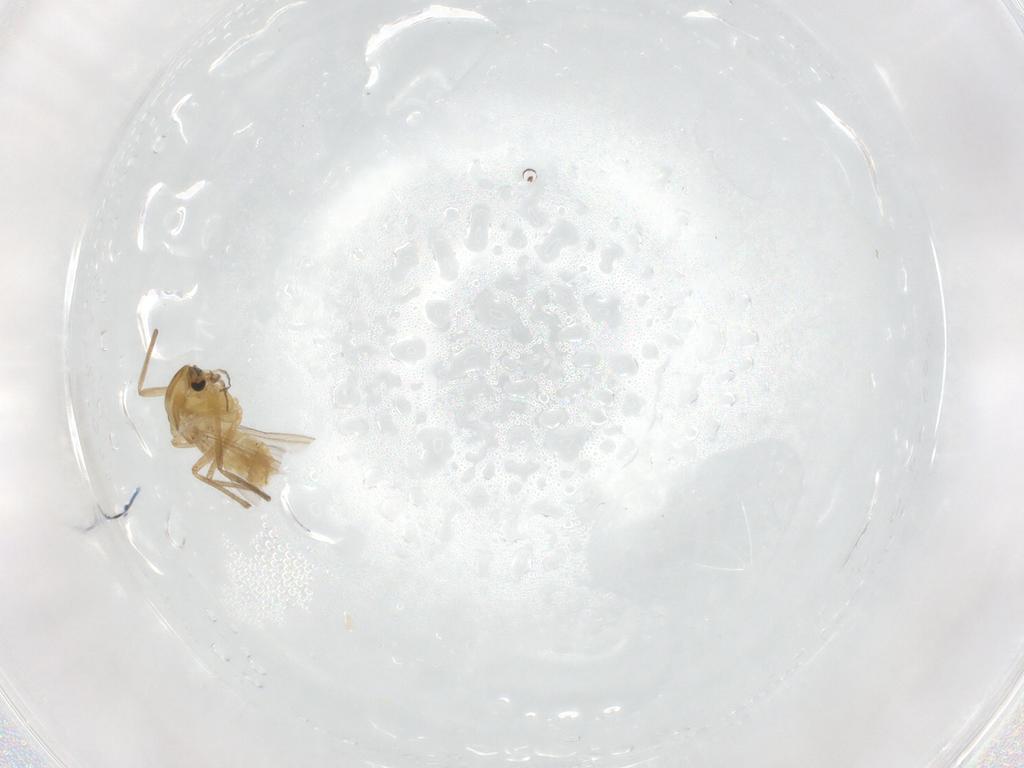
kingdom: Animalia
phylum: Arthropoda
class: Insecta
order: Diptera
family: Chironomidae
